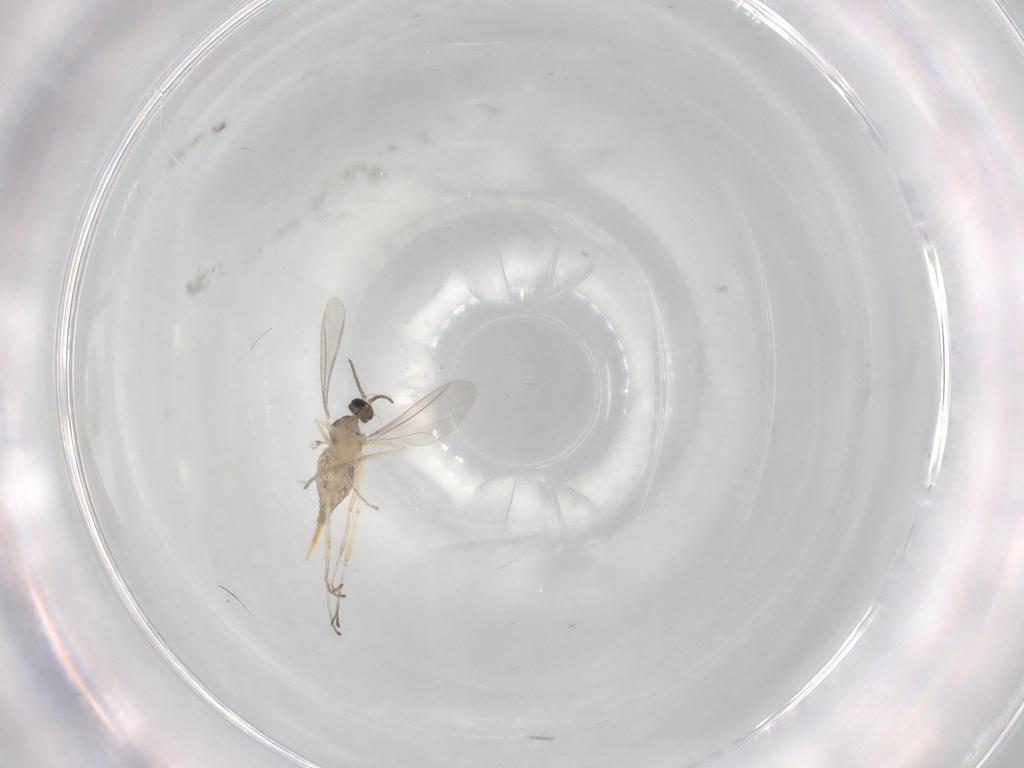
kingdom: Animalia
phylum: Arthropoda
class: Insecta
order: Diptera
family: Cecidomyiidae
